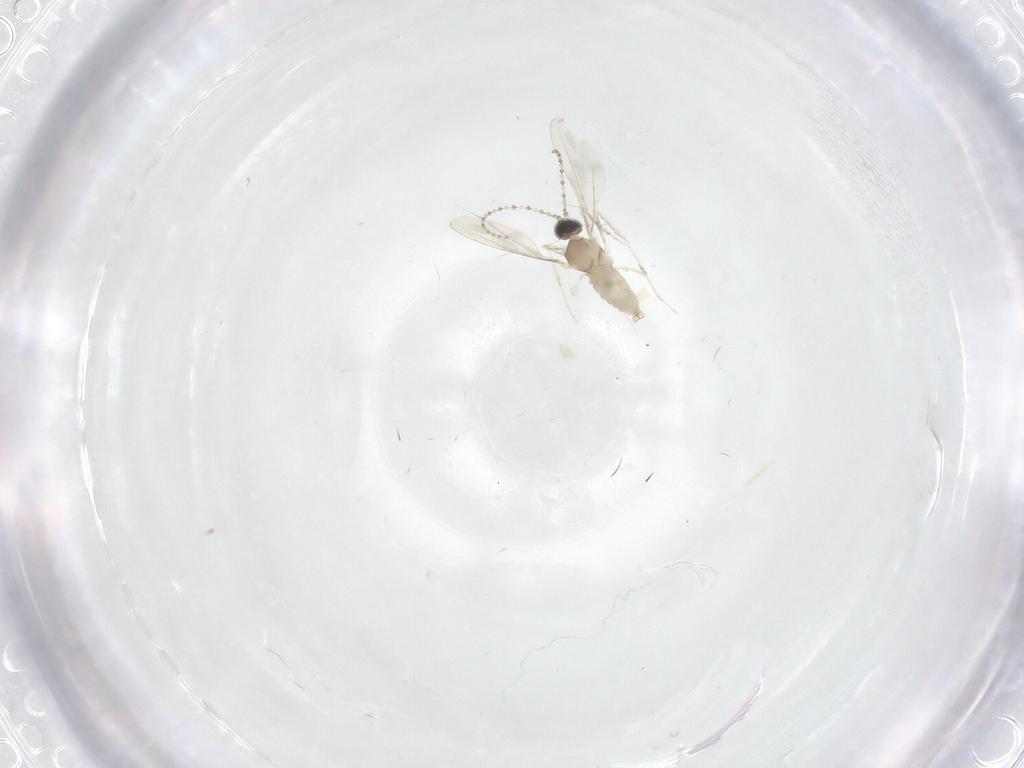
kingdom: Animalia
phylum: Arthropoda
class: Insecta
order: Diptera
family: Cecidomyiidae
